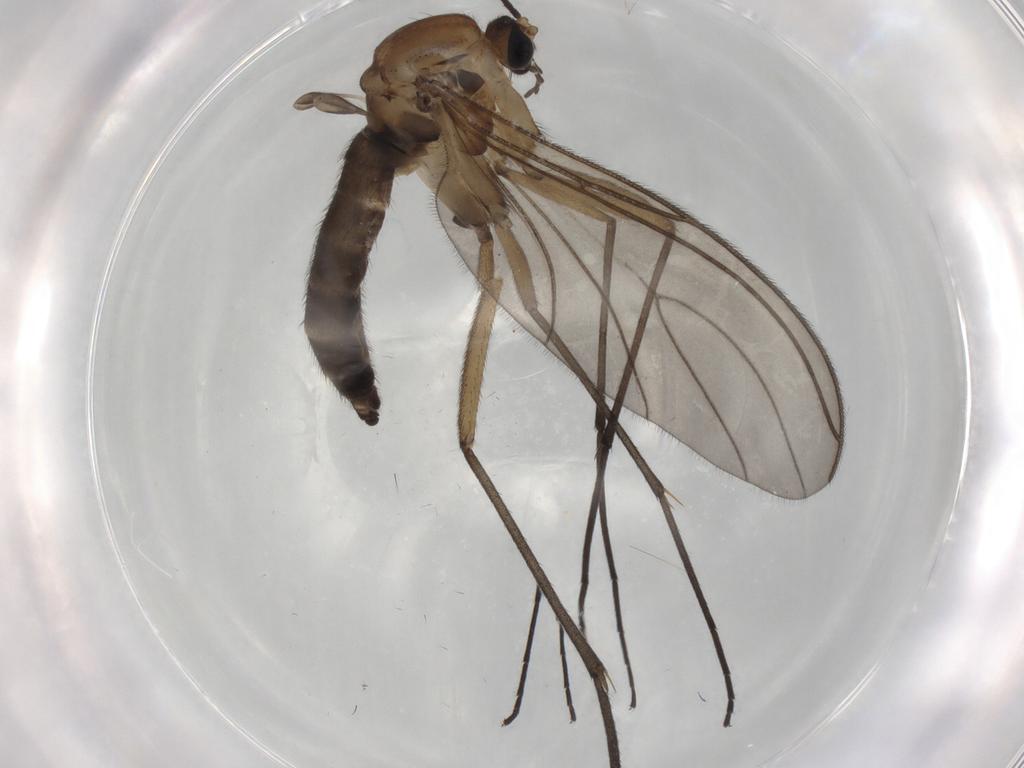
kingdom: Animalia
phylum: Arthropoda
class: Insecta
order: Diptera
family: Sciaridae
